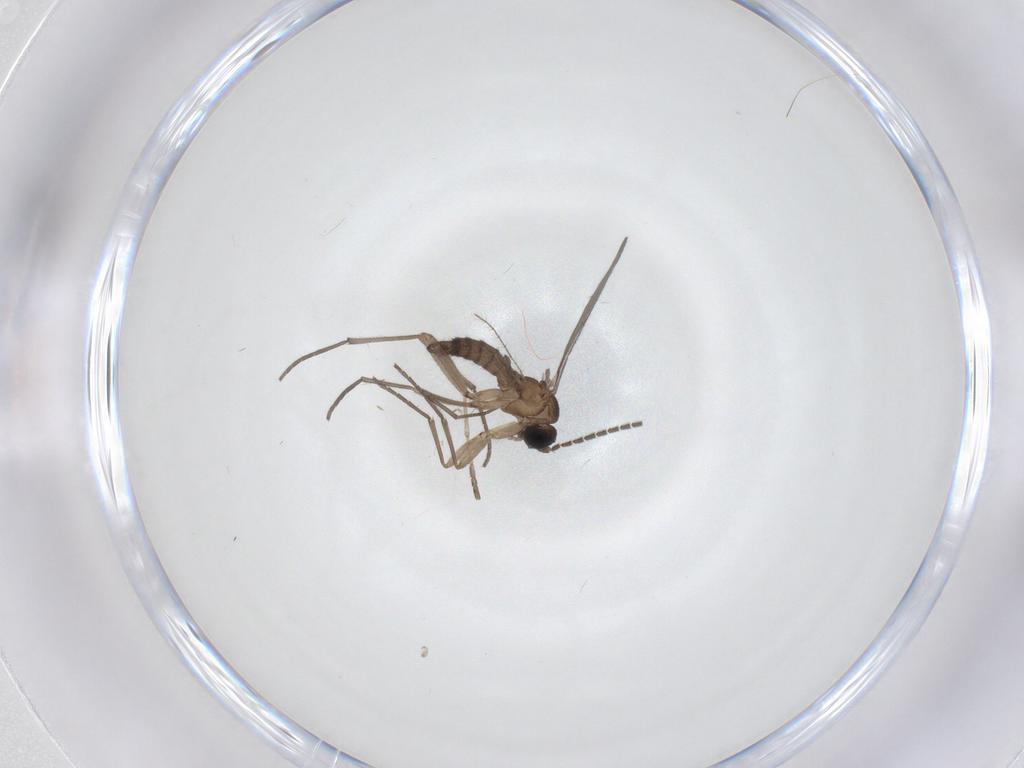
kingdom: Animalia
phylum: Arthropoda
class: Insecta
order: Diptera
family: Sciaridae
